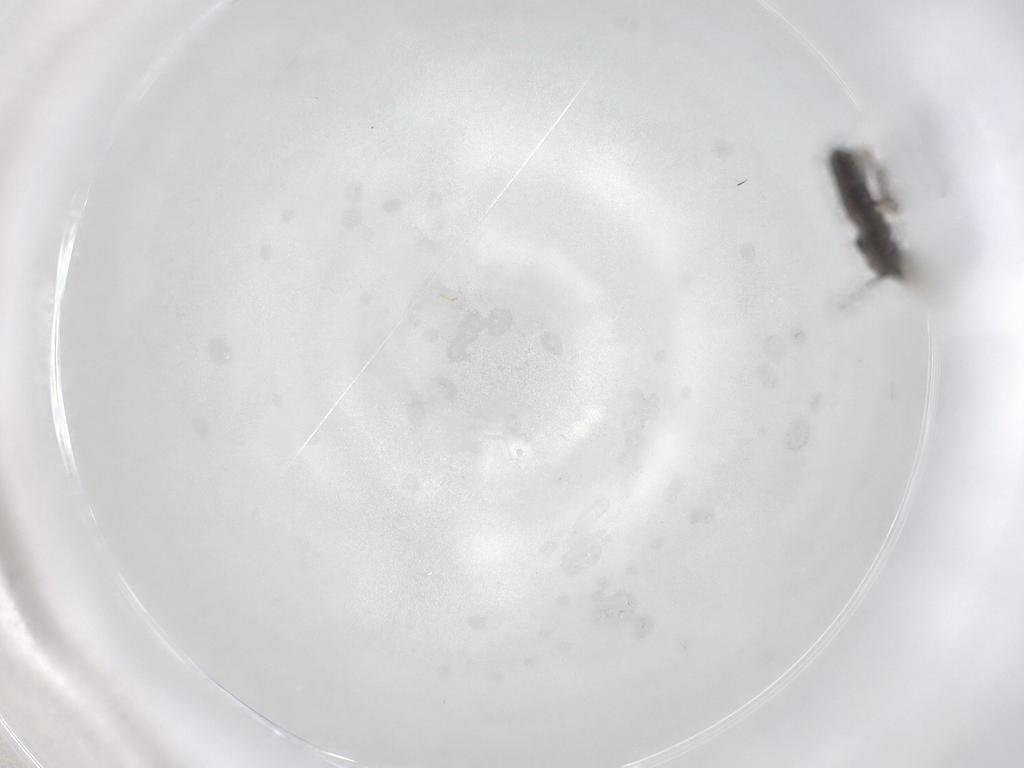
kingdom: Animalia
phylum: Arthropoda
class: Insecta
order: Diptera
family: Chironomidae
